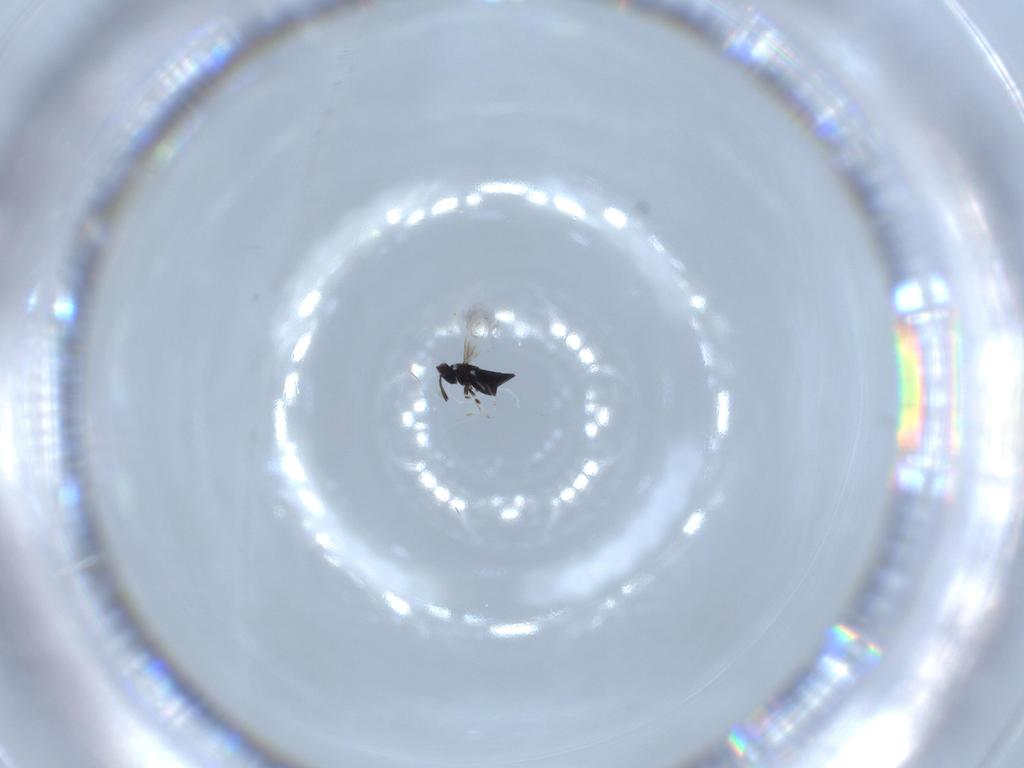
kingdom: Animalia
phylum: Arthropoda
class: Insecta
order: Hymenoptera
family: Signiphoridae
